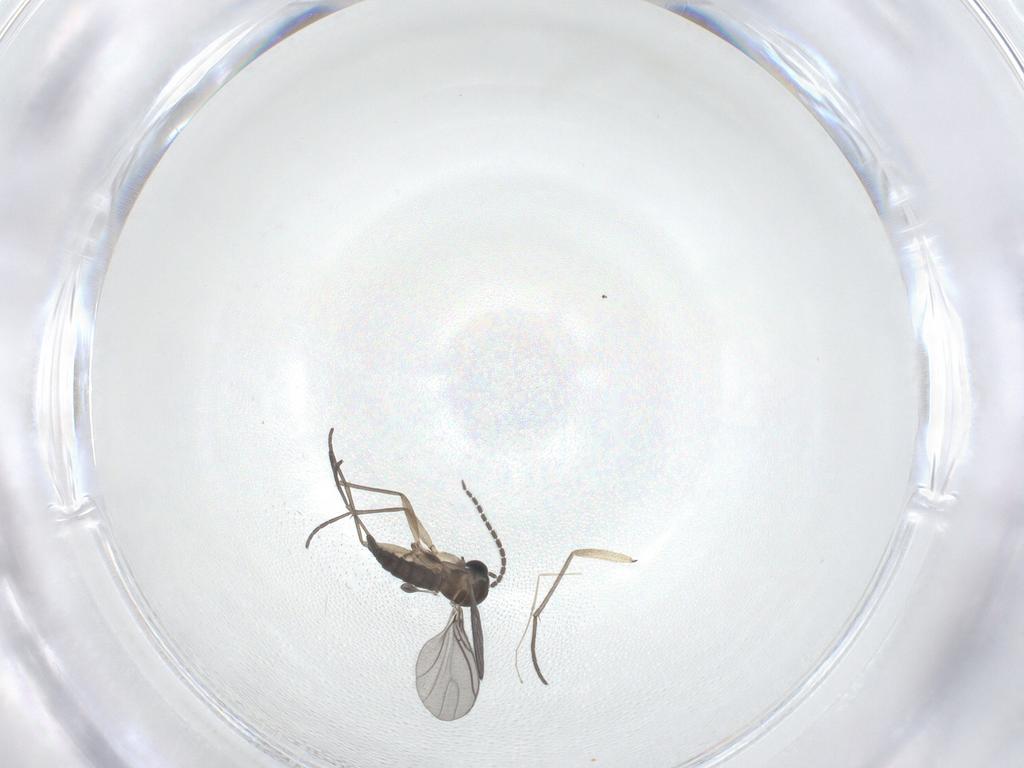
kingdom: Animalia
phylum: Arthropoda
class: Insecta
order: Diptera
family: Sciaridae
